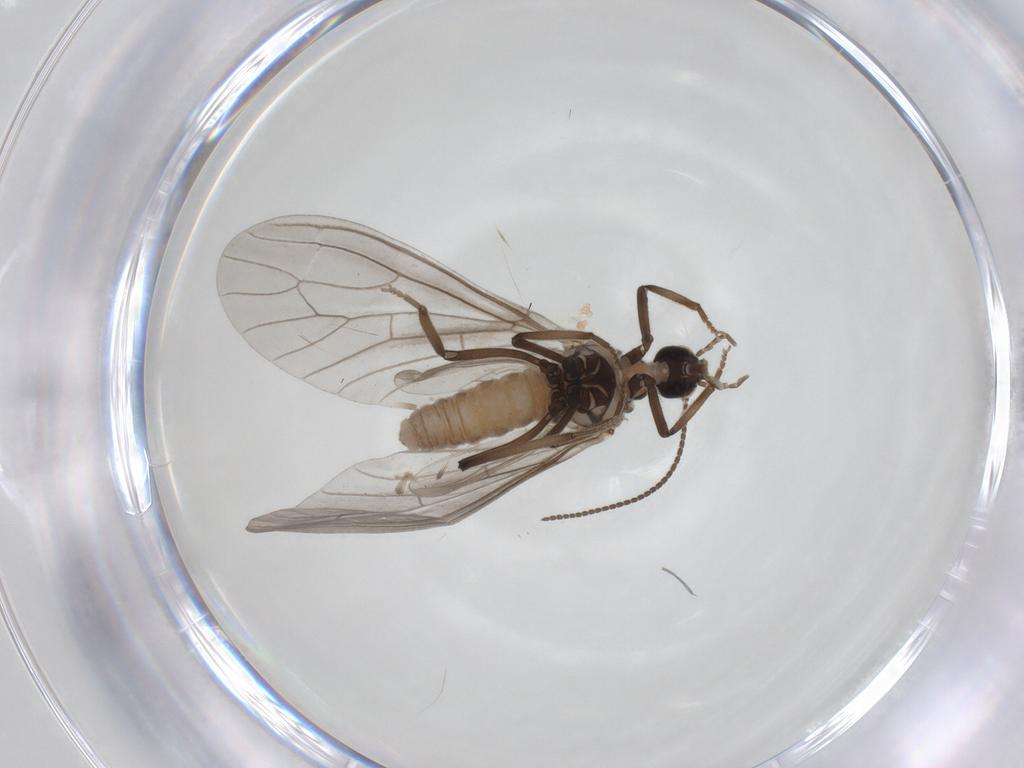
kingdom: Animalia
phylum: Arthropoda
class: Insecta
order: Neuroptera
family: Coniopterygidae
